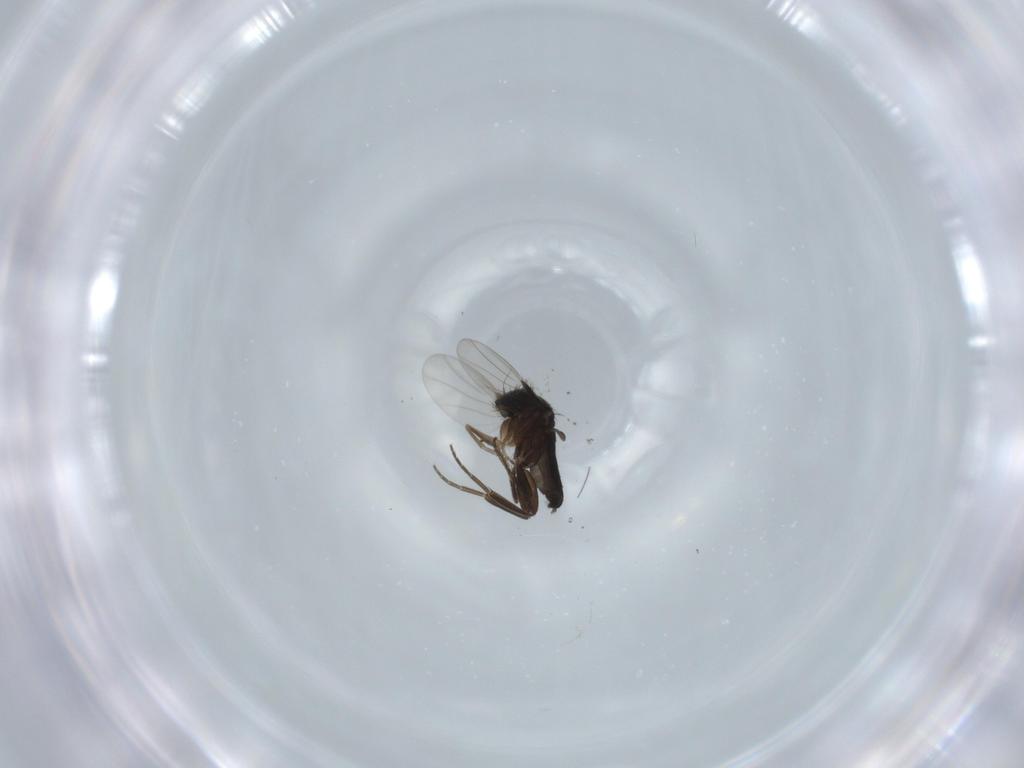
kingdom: Animalia
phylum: Arthropoda
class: Insecta
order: Diptera
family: Phoridae
